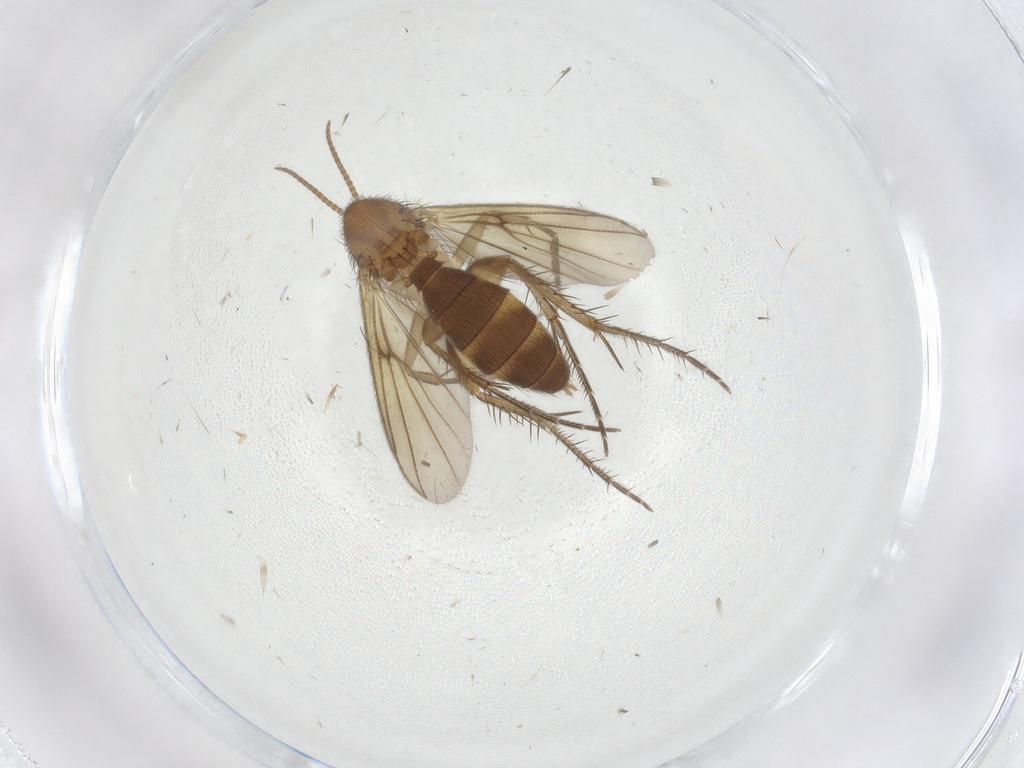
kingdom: Animalia
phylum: Arthropoda
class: Insecta
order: Diptera
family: Mycetophilidae
